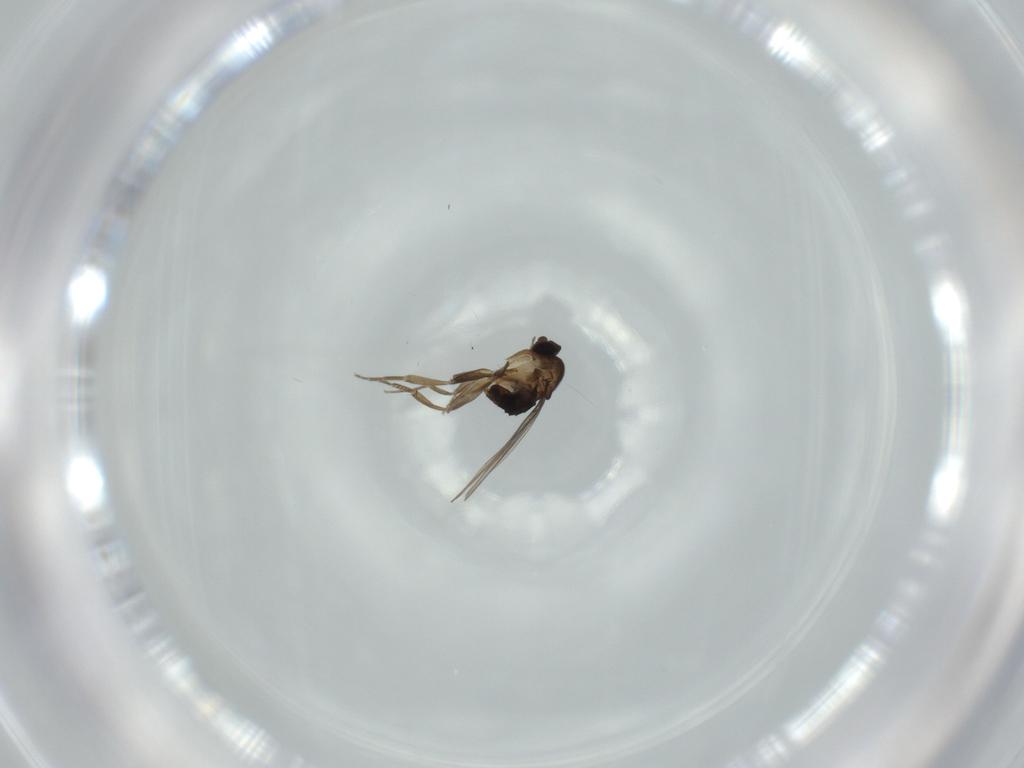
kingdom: Animalia
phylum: Arthropoda
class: Insecta
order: Diptera
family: Phoridae
